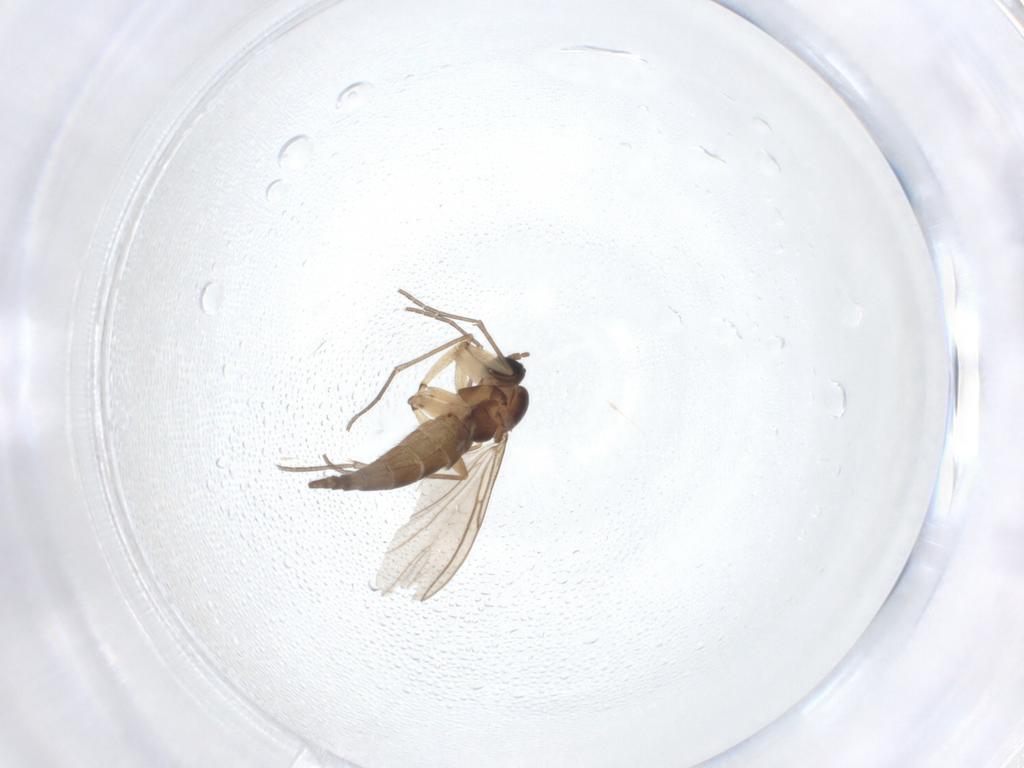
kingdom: Animalia
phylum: Arthropoda
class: Insecta
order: Diptera
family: Sciaridae
